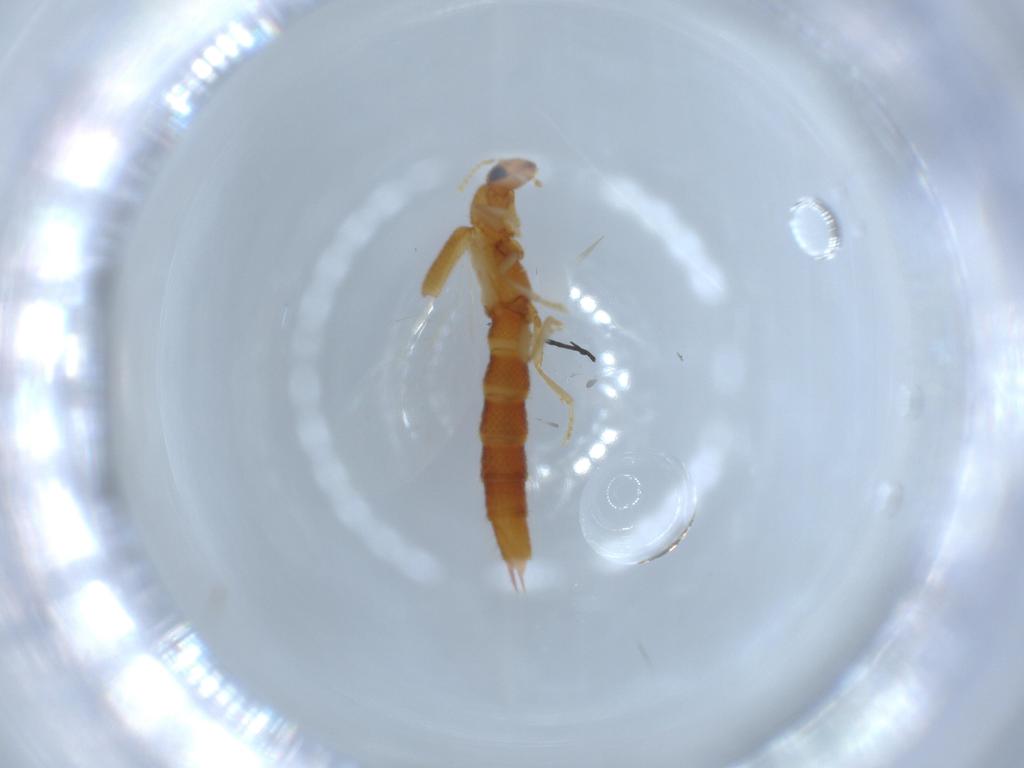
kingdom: Animalia
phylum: Arthropoda
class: Insecta
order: Coleoptera
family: Staphylinidae
